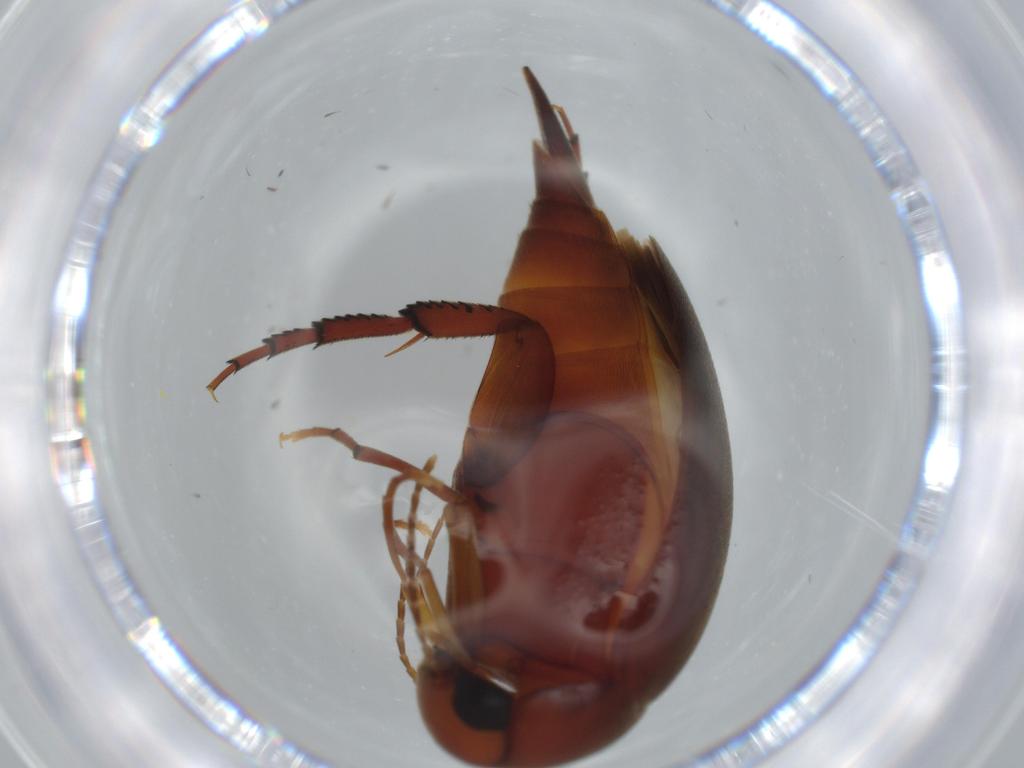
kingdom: Animalia
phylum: Arthropoda
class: Insecta
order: Coleoptera
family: Mordellidae
